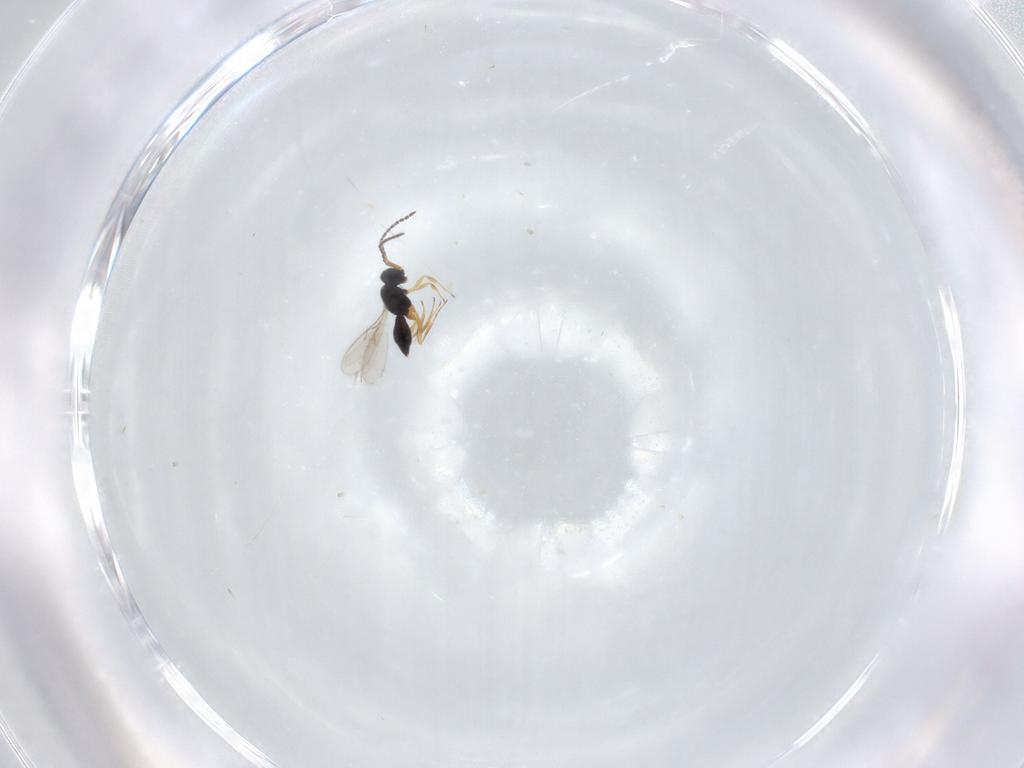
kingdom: Animalia
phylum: Arthropoda
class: Insecta
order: Hymenoptera
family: Scelionidae
